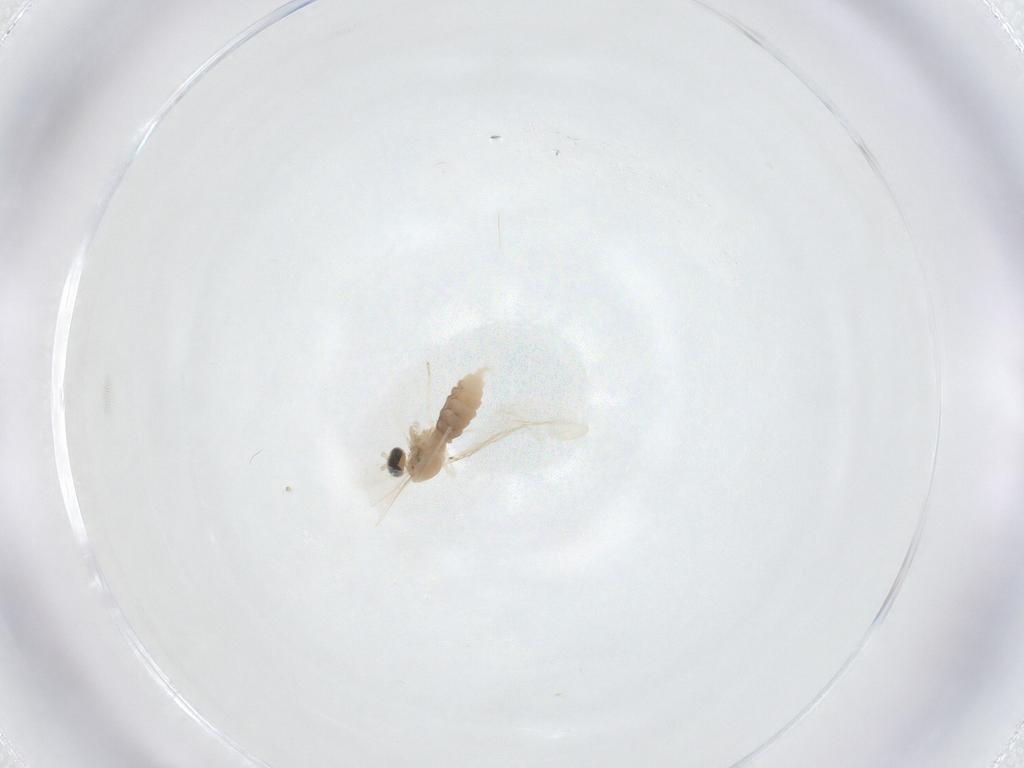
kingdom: Animalia
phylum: Arthropoda
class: Insecta
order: Diptera
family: Cecidomyiidae
